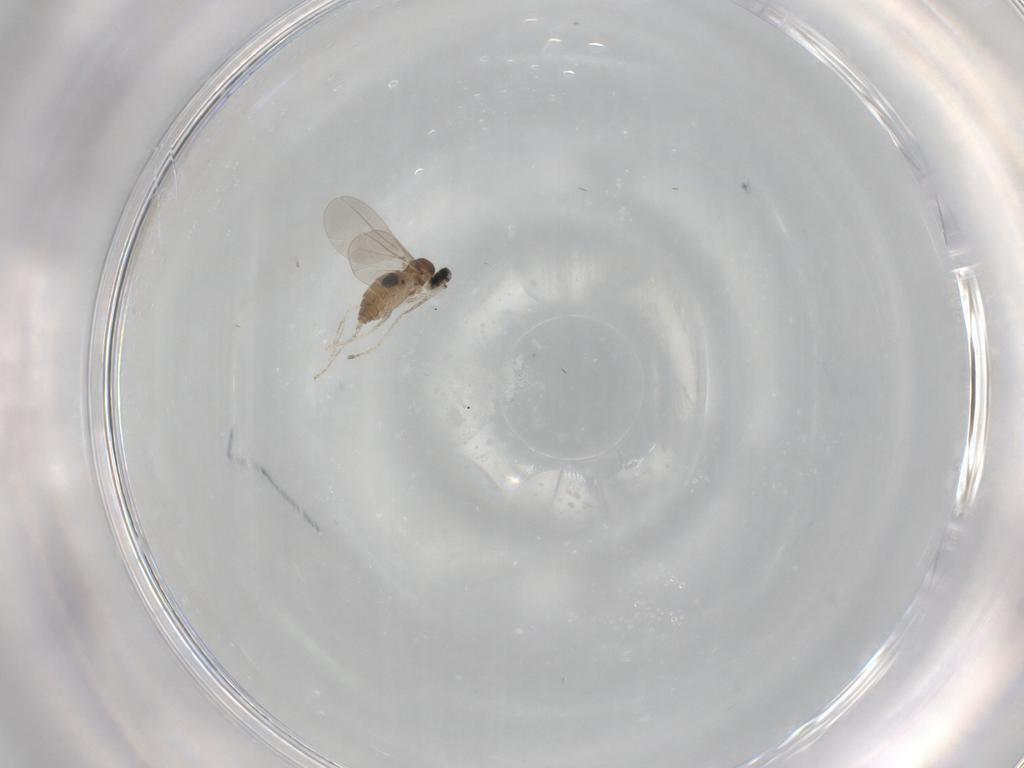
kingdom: Animalia
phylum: Arthropoda
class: Insecta
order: Diptera
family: Cecidomyiidae
